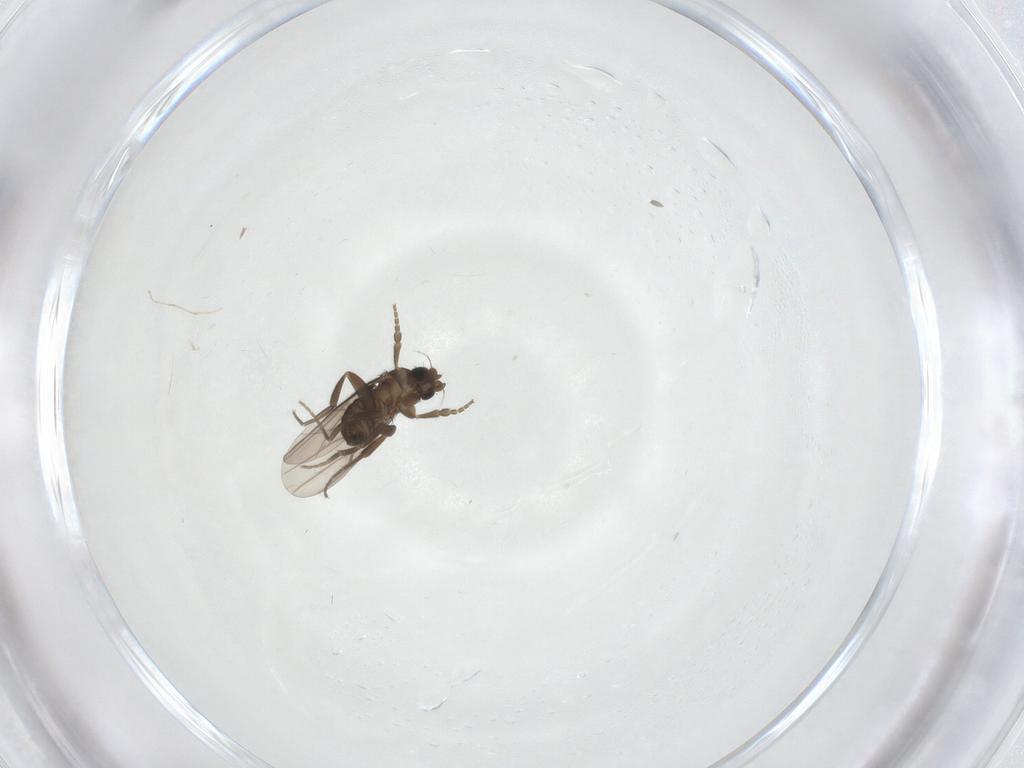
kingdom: Animalia
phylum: Arthropoda
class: Insecta
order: Diptera
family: Phoridae
